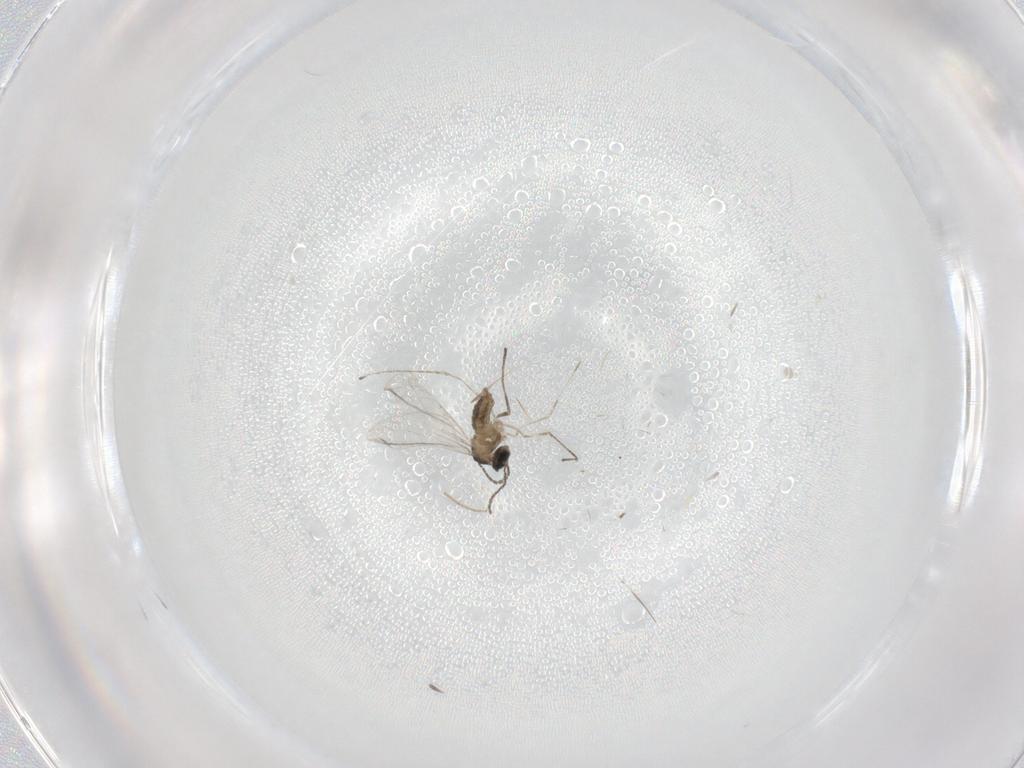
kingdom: Animalia
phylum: Arthropoda
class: Insecta
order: Diptera
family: Cecidomyiidae
